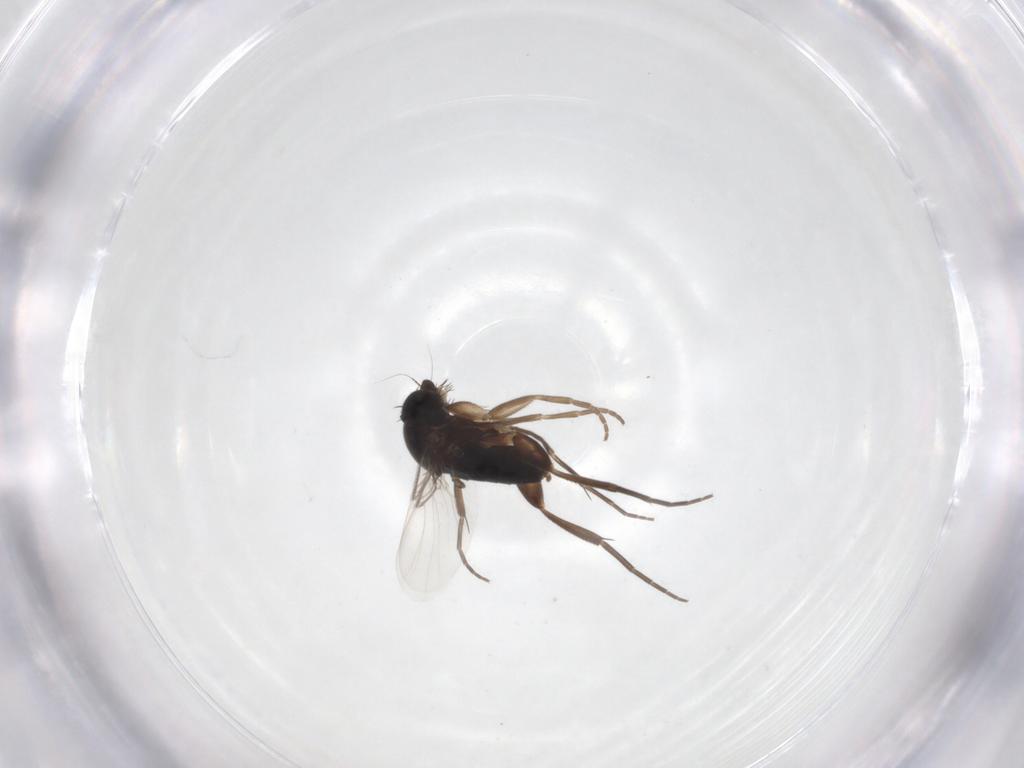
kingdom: Animalia
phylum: Arthropoda
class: Insecta
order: Diptera
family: Phoridae
